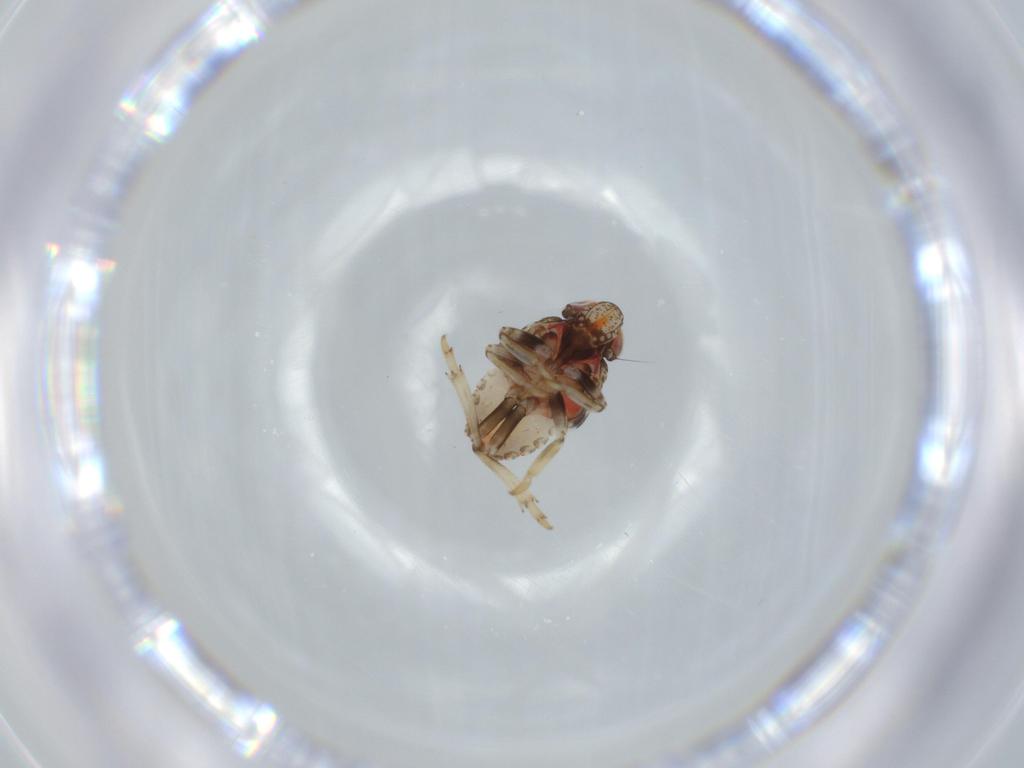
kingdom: Animalia
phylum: Arthropoda
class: Insecta
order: Hemiptera
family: Issidae
